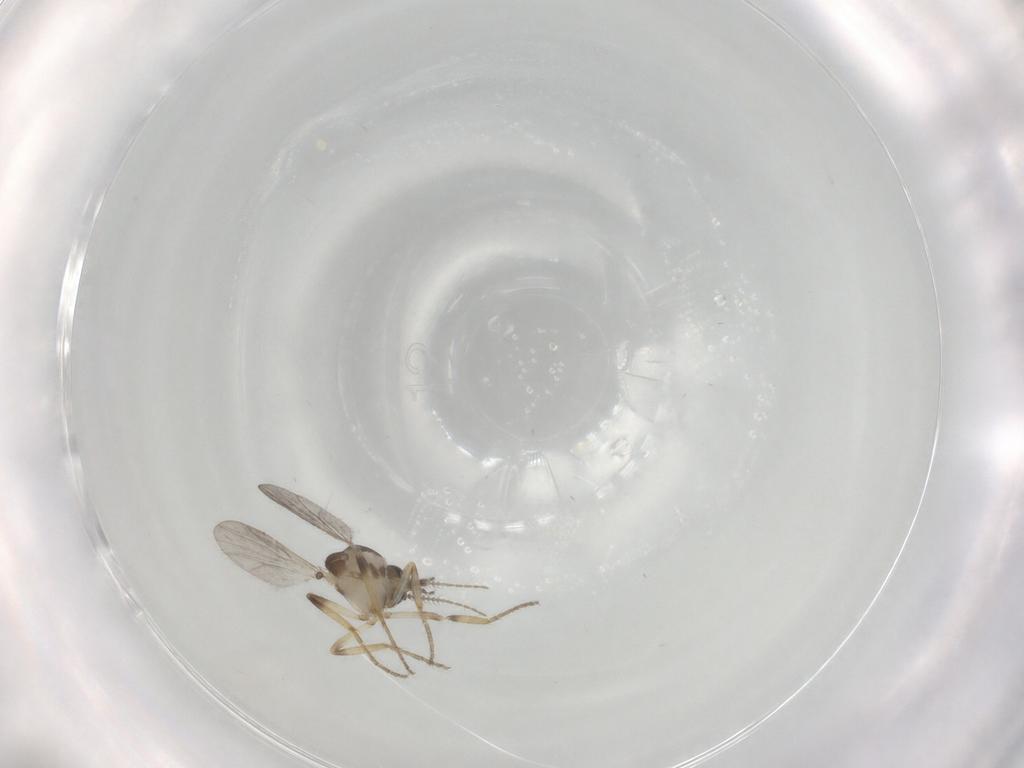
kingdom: Animalia
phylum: Arthropoda
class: Insecta
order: Diptera
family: Ceratopogonidae
